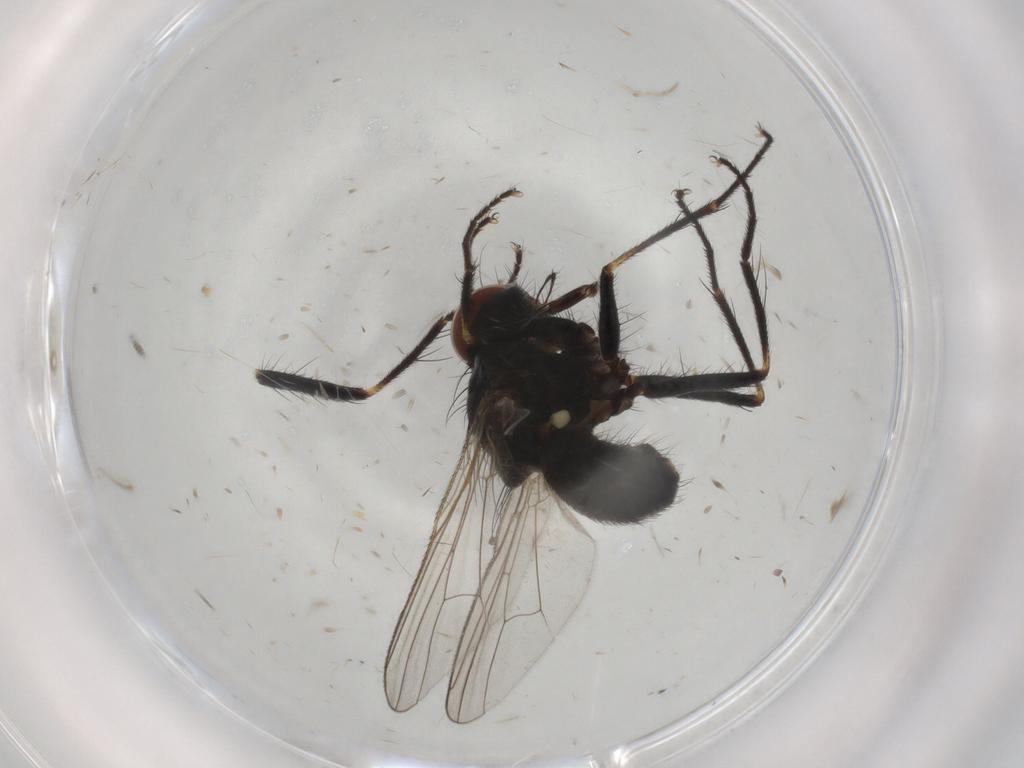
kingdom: Animalia
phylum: Arthropoda
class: Insecta
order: Diptera
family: Muscidae
